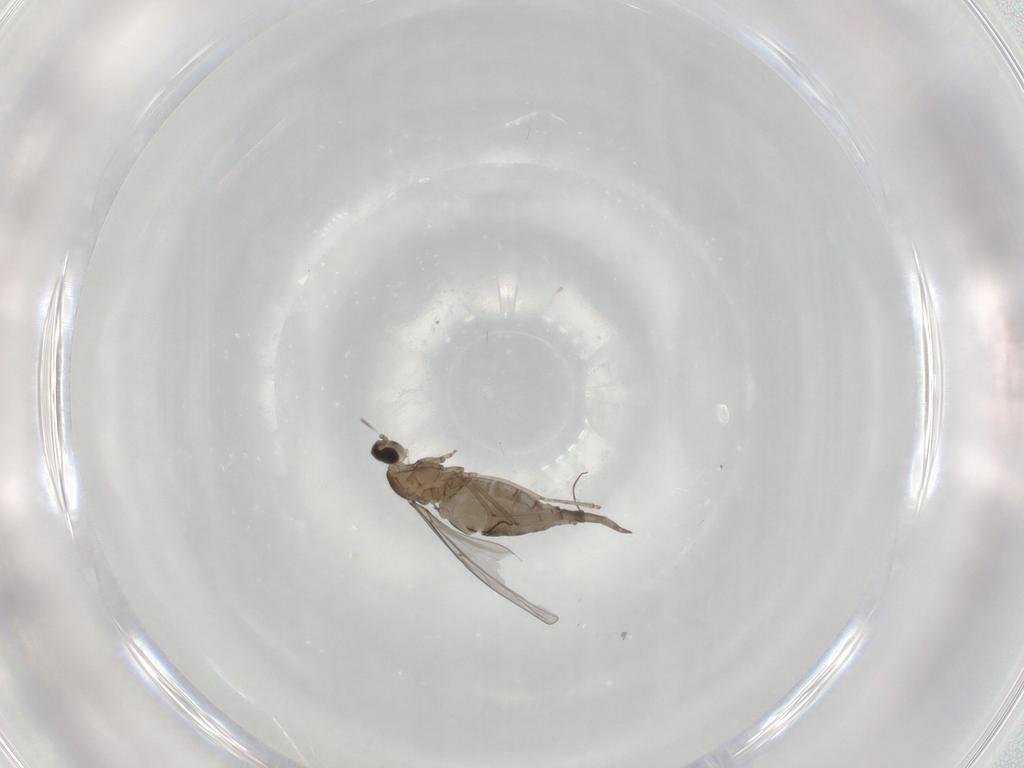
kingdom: Animalia
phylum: Arthropoda
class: Insecta
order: Diptera
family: Cecidomyiidae
